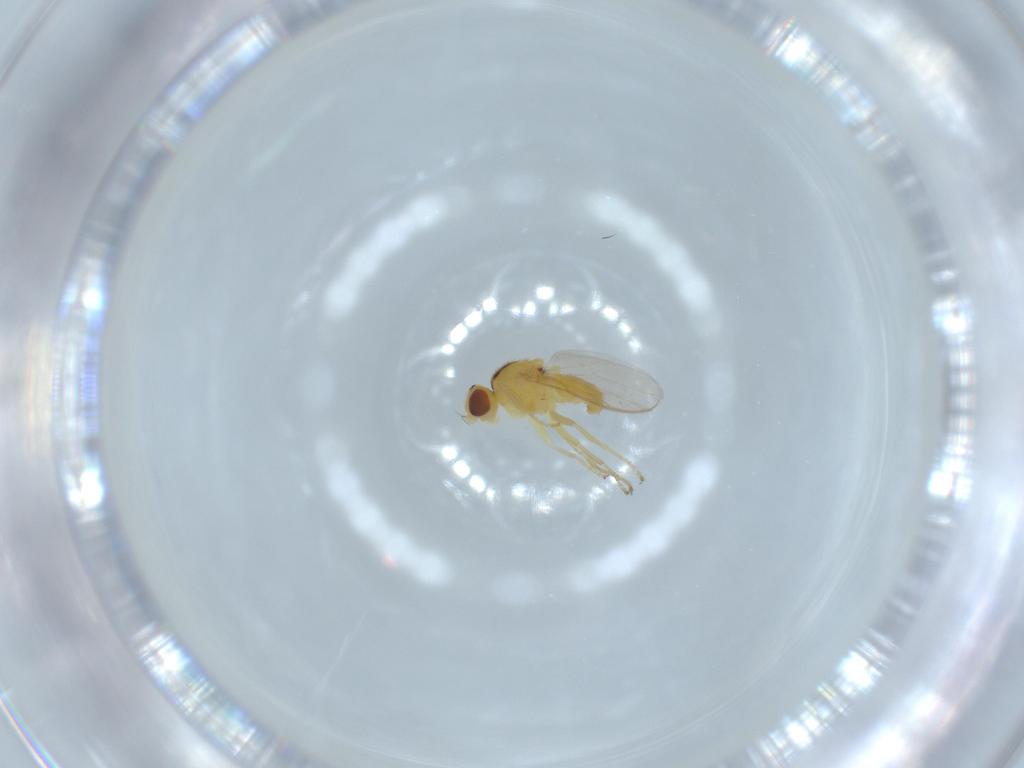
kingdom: Animalia
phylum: Arthropoda
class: Insecta
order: Diptera
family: Chloropidae
